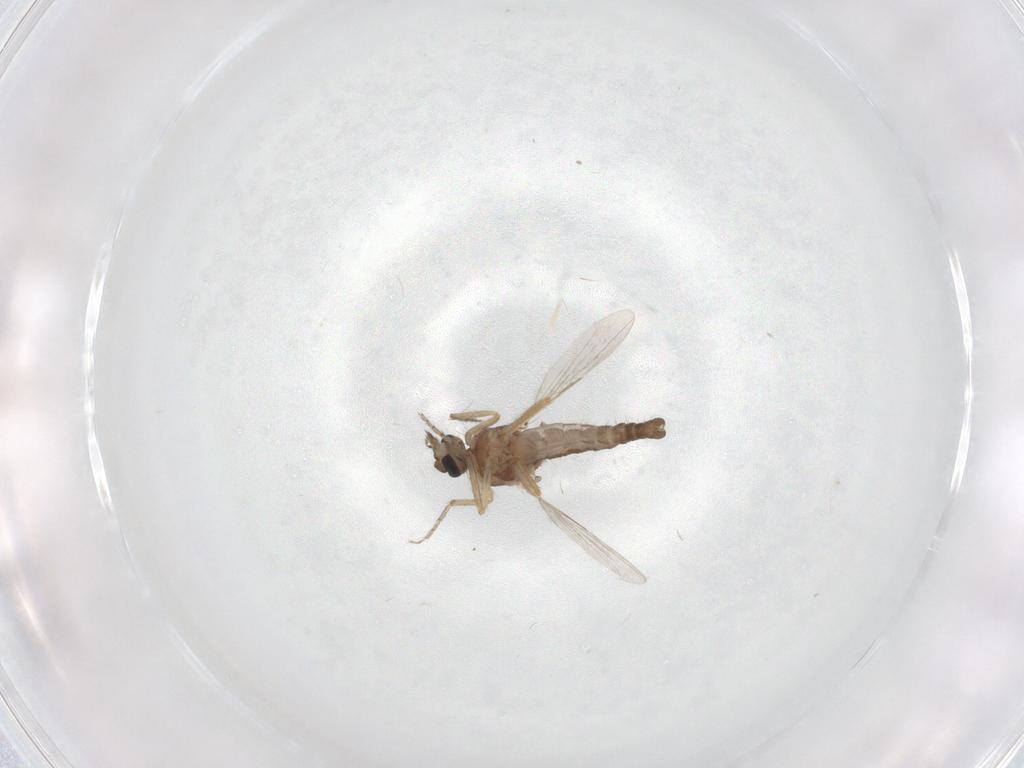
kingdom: Animalia
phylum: Arthropoda
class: Insecta
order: Diptera
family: Ceratopogonidae
